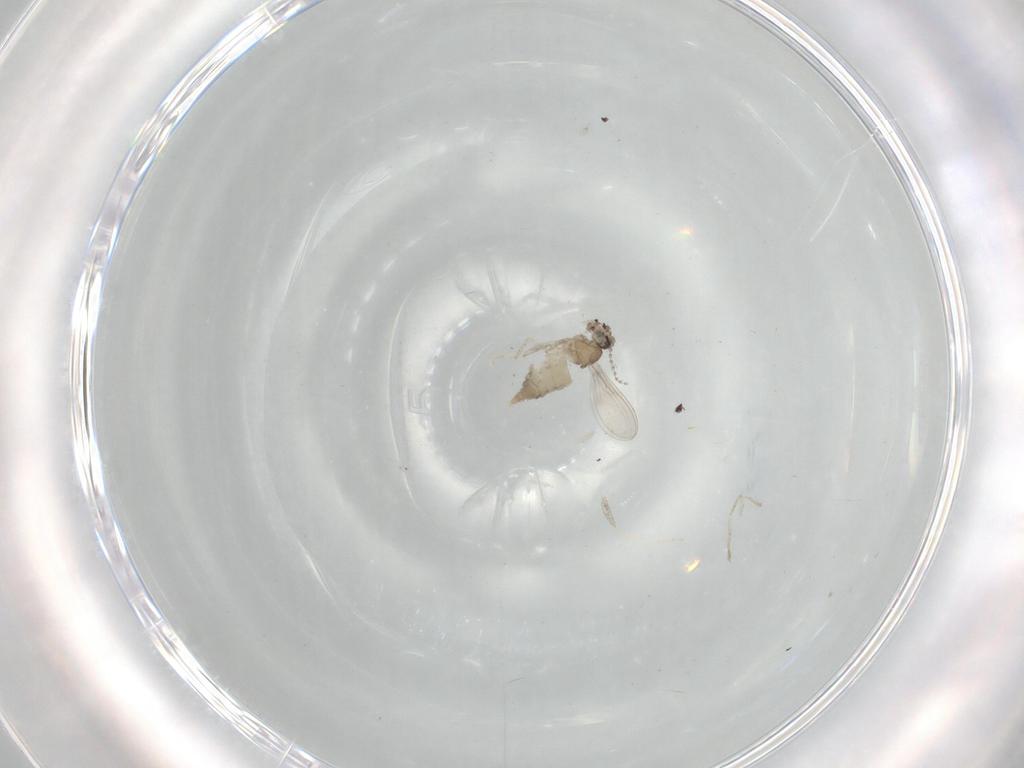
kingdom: Animalia
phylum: Arthropoda
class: Insecta
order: Diptera
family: Cecidomyiidae
